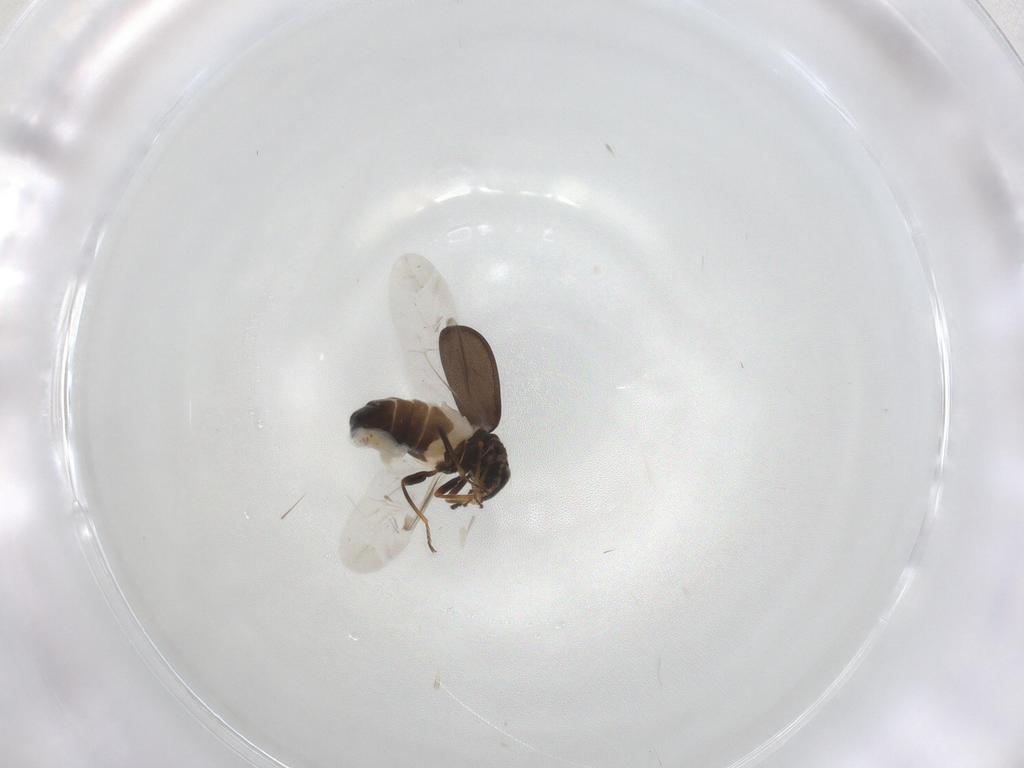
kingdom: Animalia
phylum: Arthropoda
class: Insecta
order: Coleoptera
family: Melyridae
